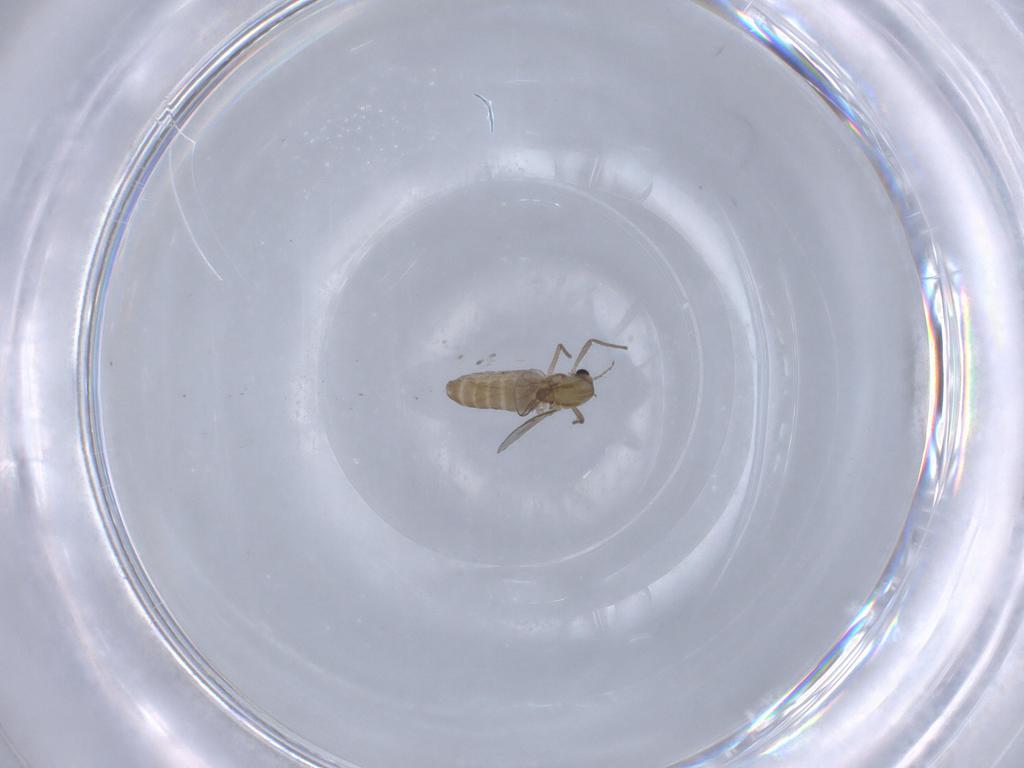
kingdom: Animalia
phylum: Arthropoda
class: Insecta
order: Diptera
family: Chironomidae
